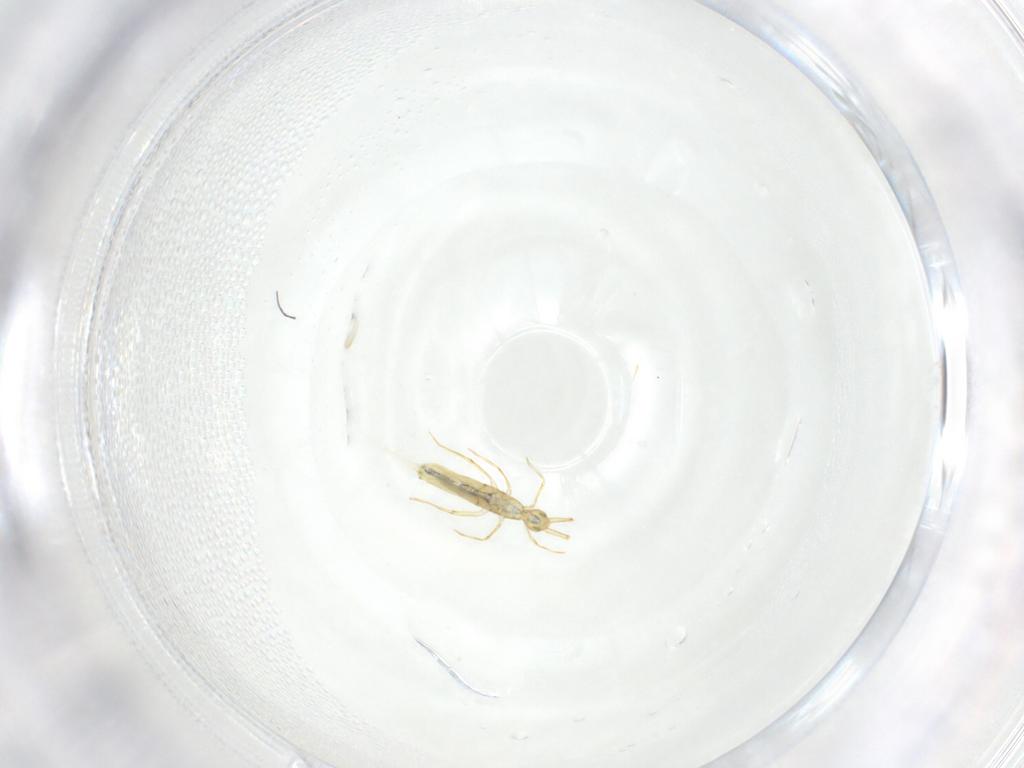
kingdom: Animalia
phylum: Arthropoda
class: Collembola
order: Entomobryomorpha
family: Entomobryidae
